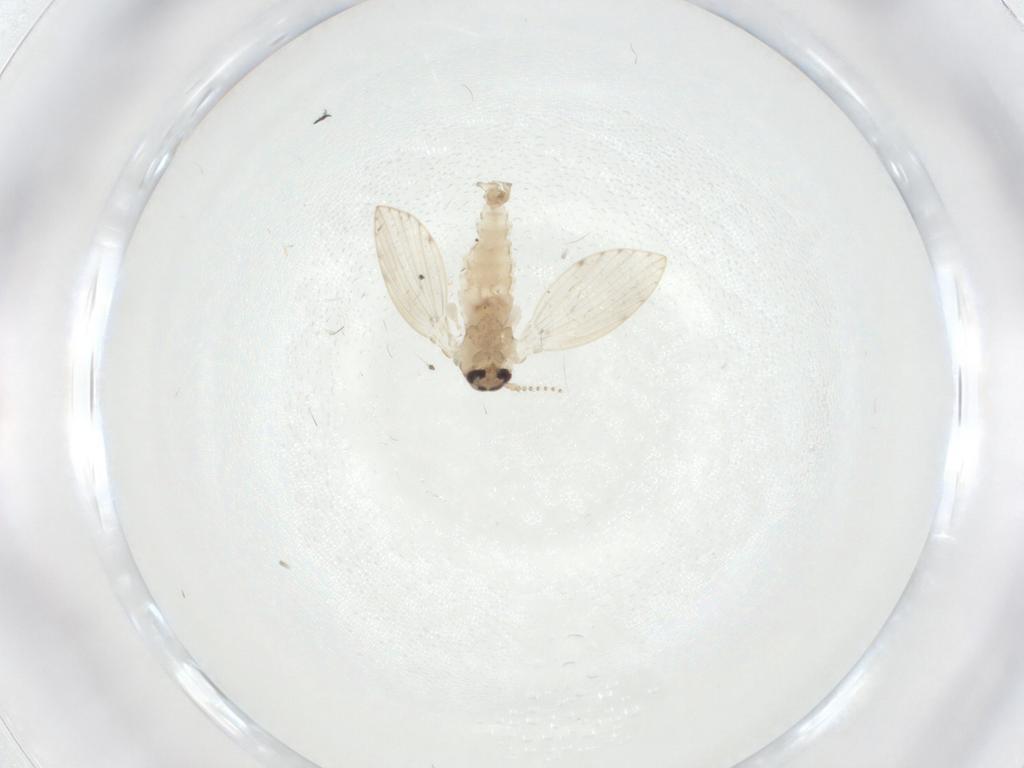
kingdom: Animalia
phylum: Arthropoda
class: Insecta
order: Diptera
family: Psychodidae
